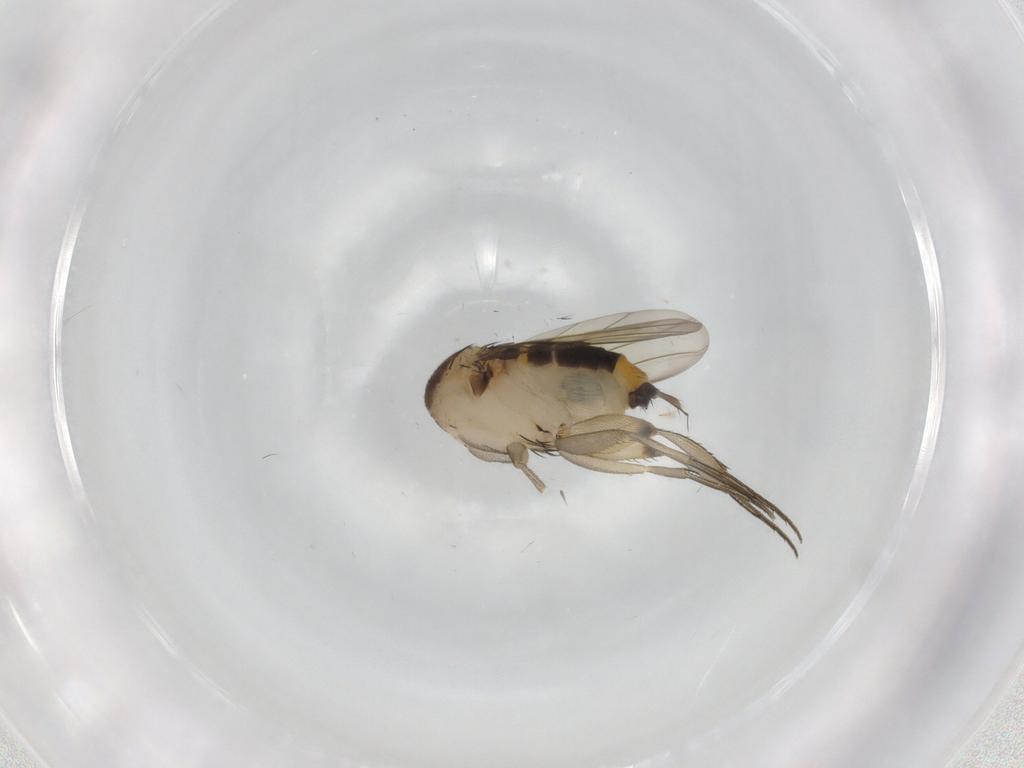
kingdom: Animalia
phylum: Arthropoda
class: Insecta
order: Diptera
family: Phoridae
